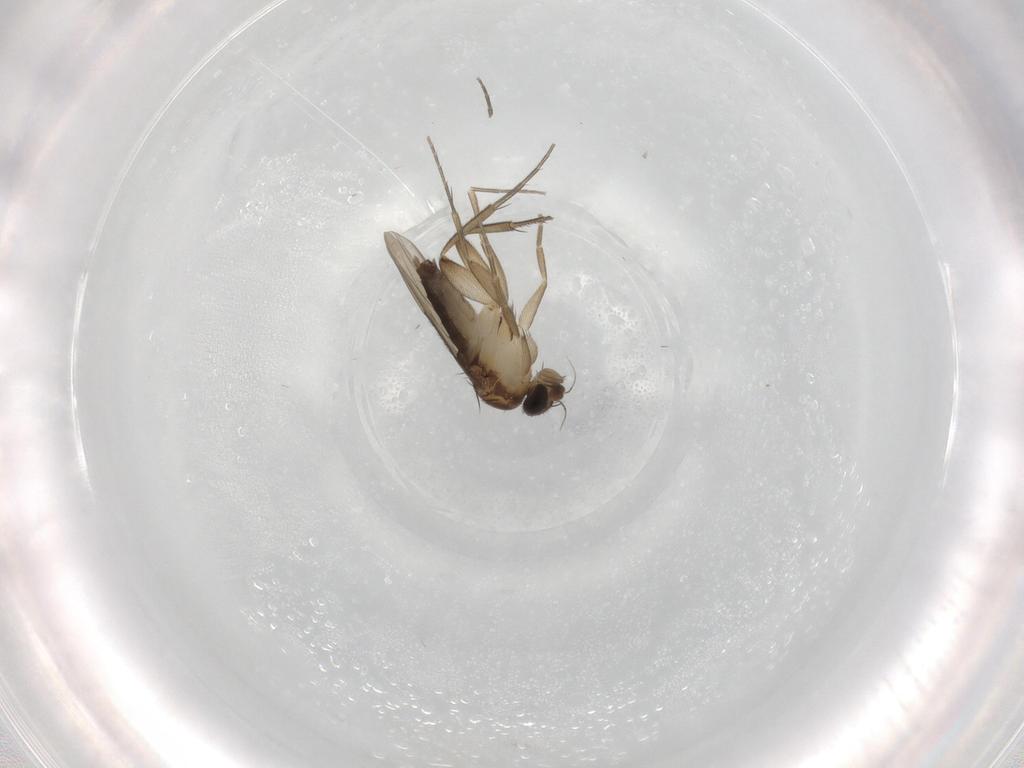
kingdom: Animalia
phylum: Arthropoda
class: Insecta
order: Diptera
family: Phoridae
